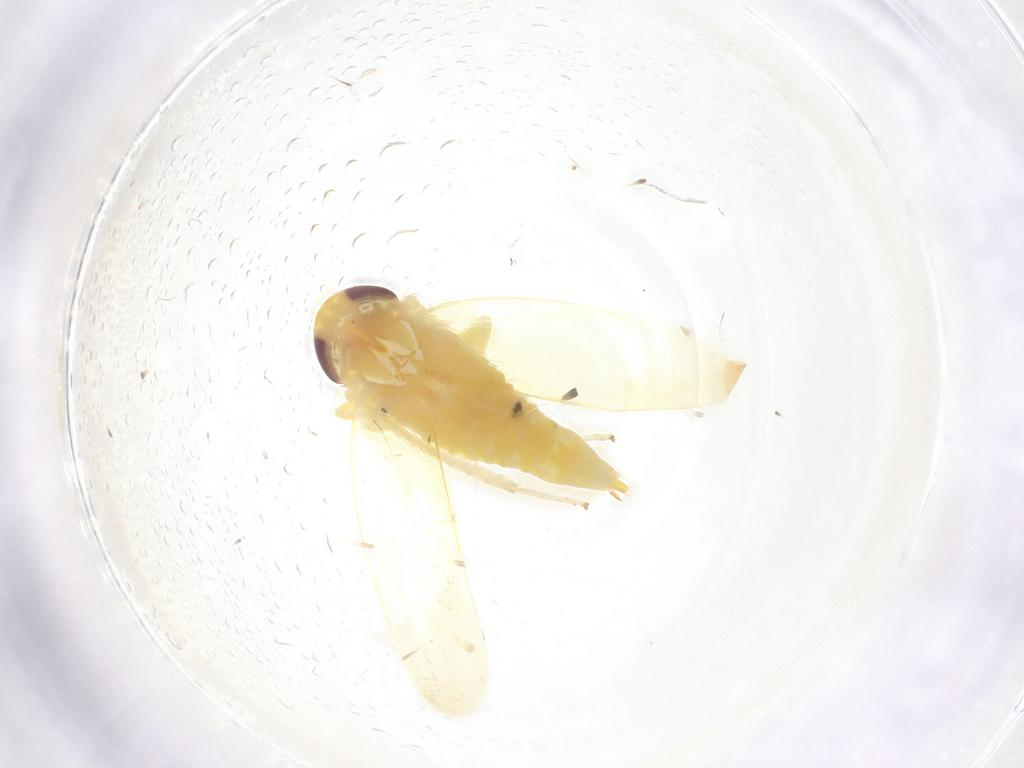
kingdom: Animalia
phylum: Arthropoda
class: Insecta
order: Hemiptera
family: Cicadellidae
